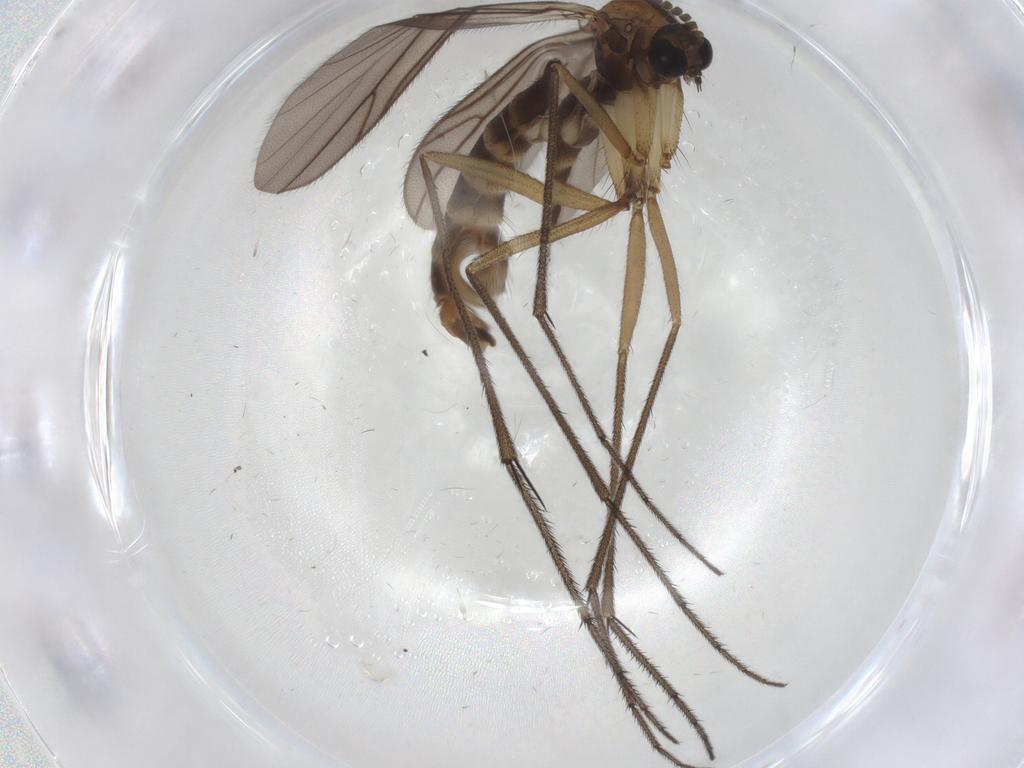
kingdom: Animalia
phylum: Arthropoda
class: Insecta
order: Diptera
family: Ditomyiidae
